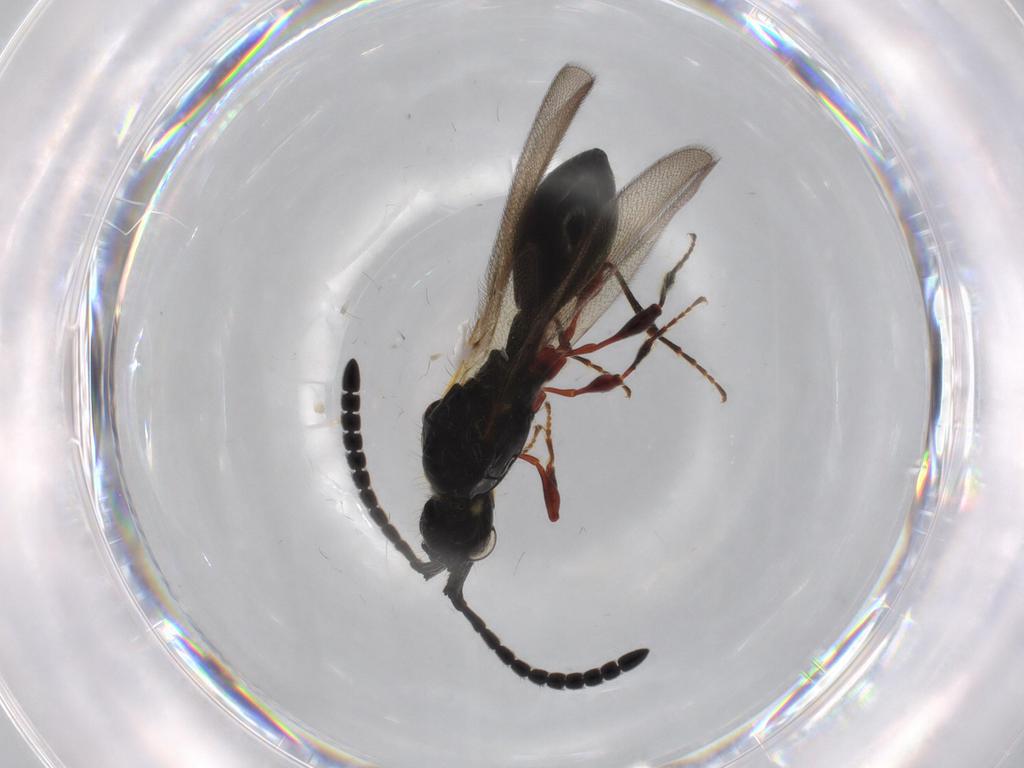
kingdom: Animalia
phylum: Arthropoda
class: Insecta
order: Hymenoptera
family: Diapriidae
